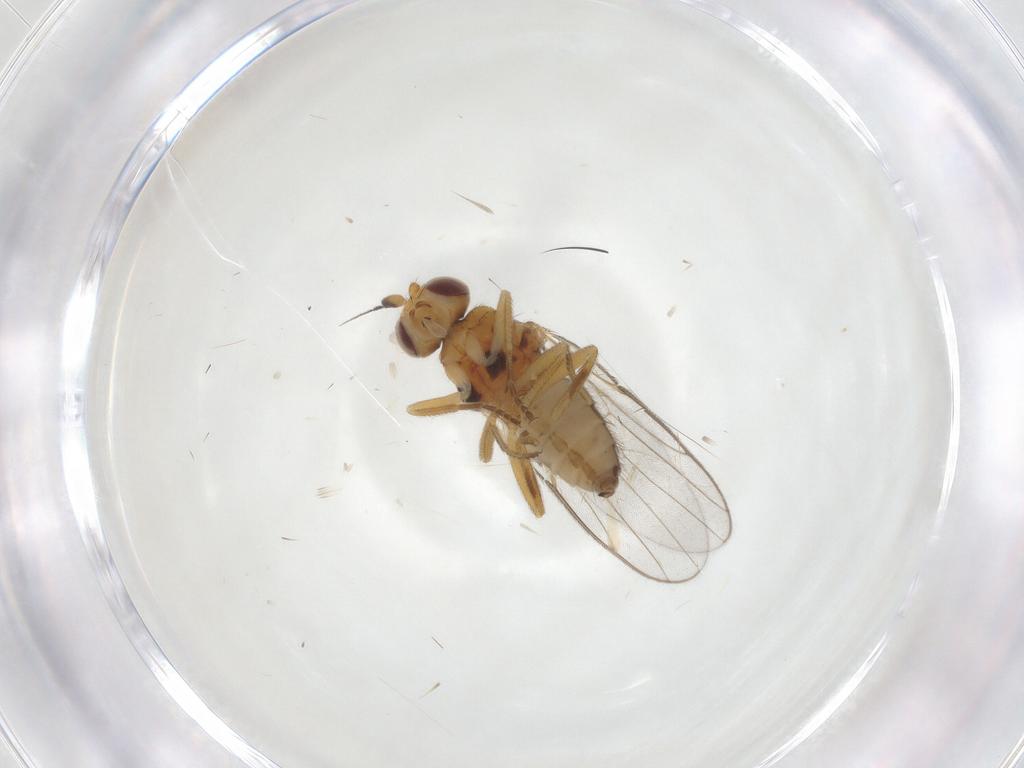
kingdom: Animalia
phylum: Arthropoda
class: Insecta
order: Diptera
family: Chloropidae
